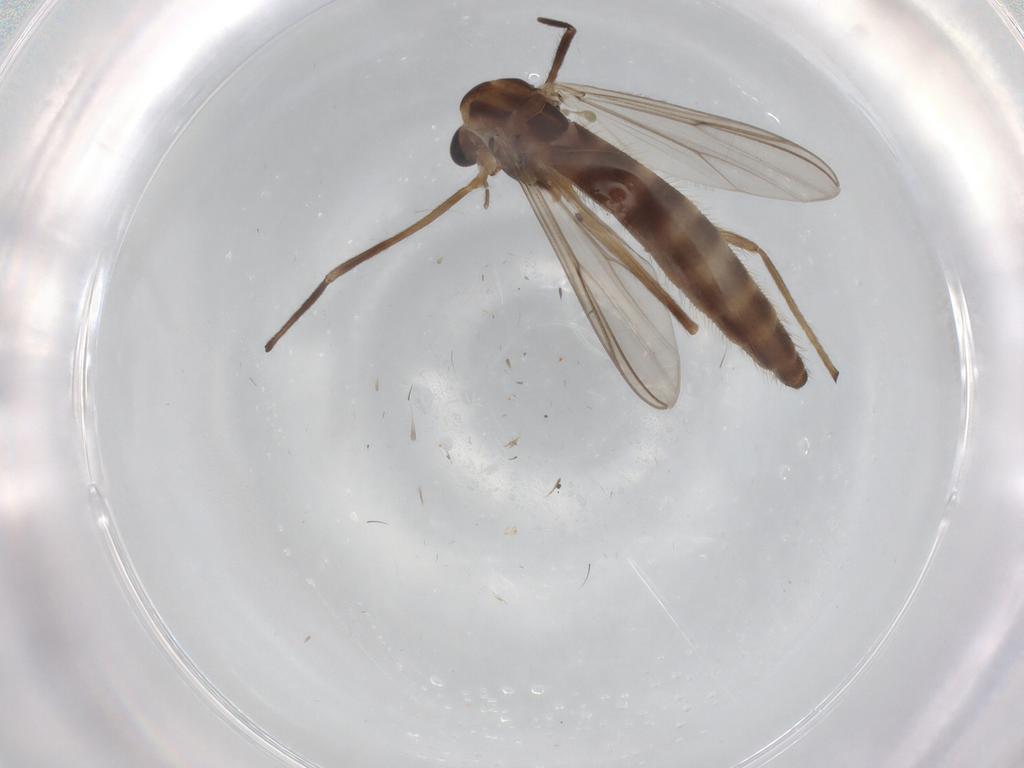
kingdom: Animalia
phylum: Arthropoda
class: Insecta
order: Diptera
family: Chironomidae
